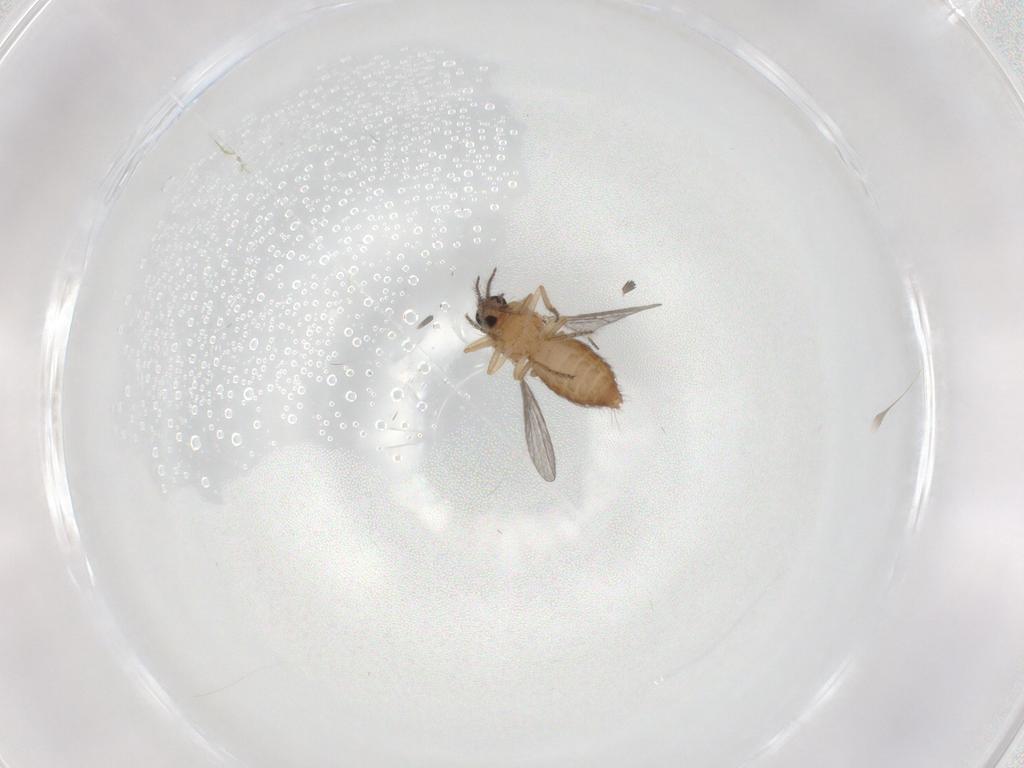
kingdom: Animalia
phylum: Arthropoda
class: Insecta
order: Diptera
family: Ceratopogonidae
